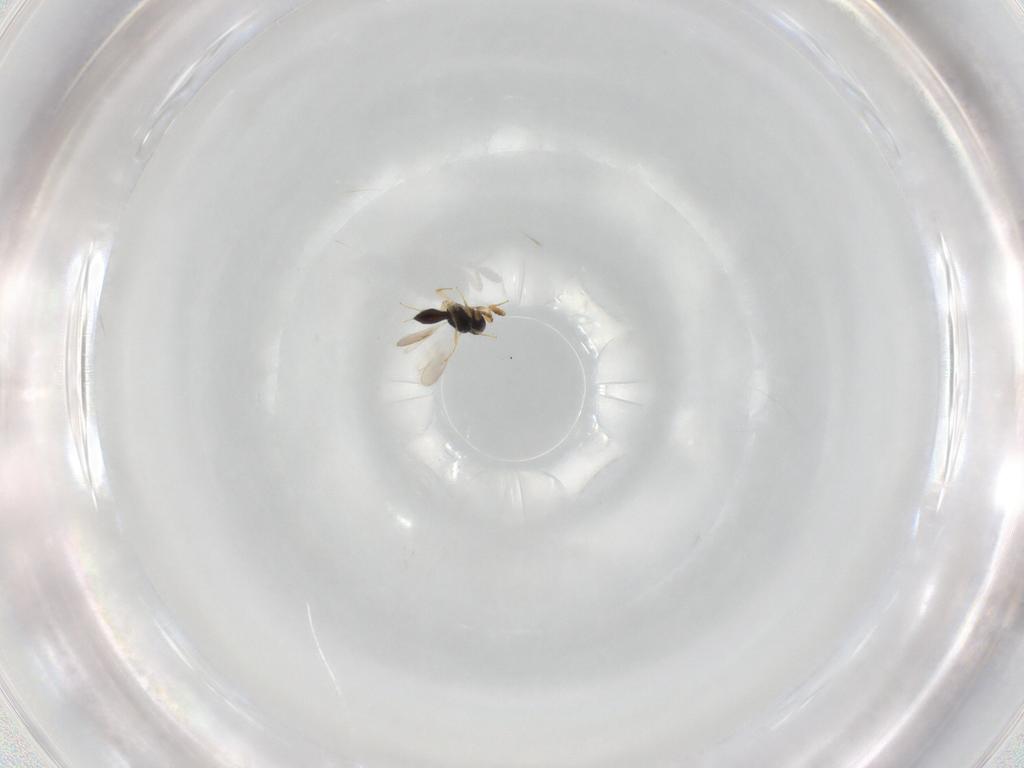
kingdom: Animalia
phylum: Arthropoda
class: Insecta
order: Hymenoptera
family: Scelionidae
